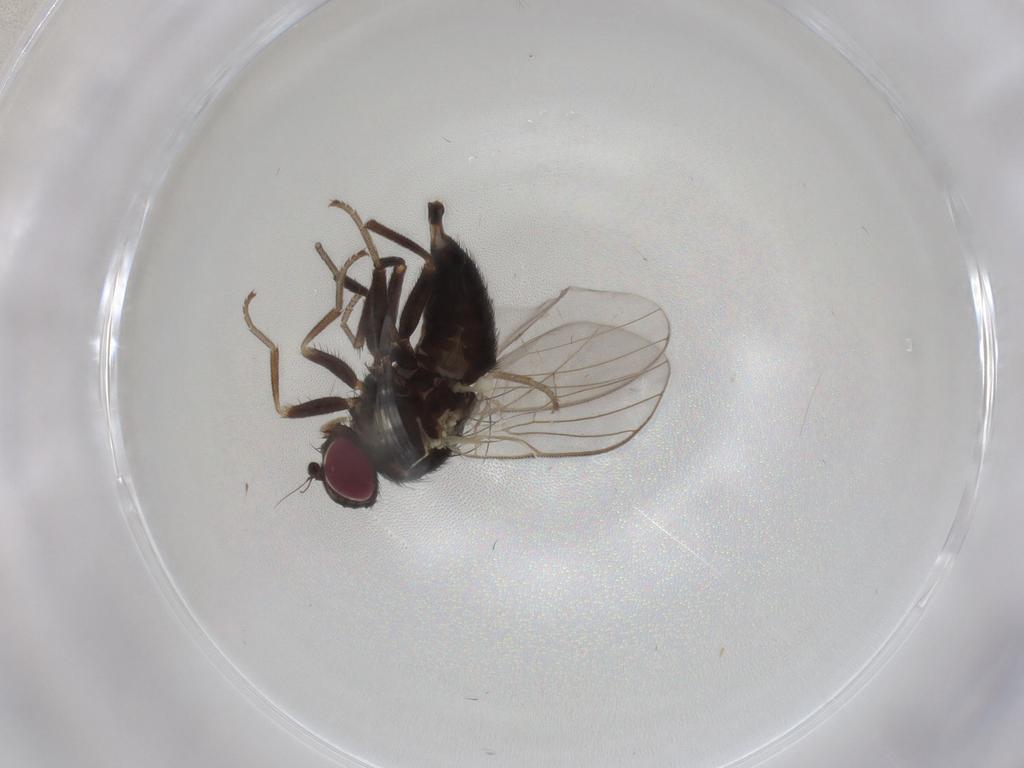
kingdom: Animalia
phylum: Arthropoda
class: Insecta
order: Diptera
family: Agromyzidae
